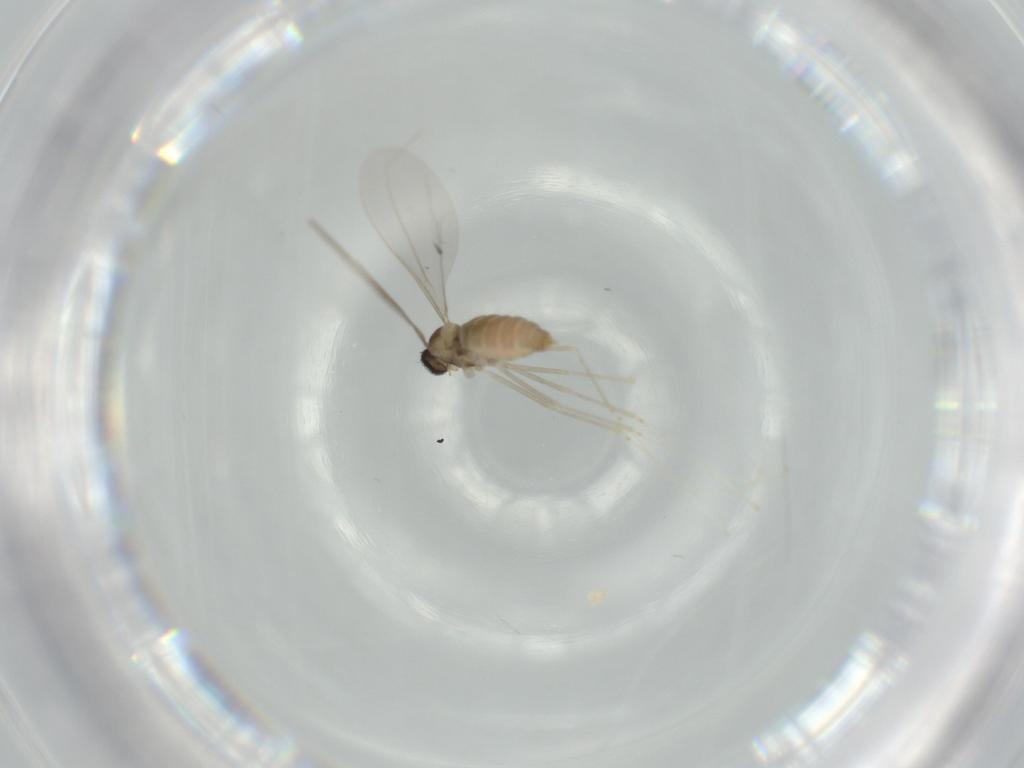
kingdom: Animalia
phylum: Arthropoda
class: Insecta
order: Diptera
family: Cecidomyiidae
